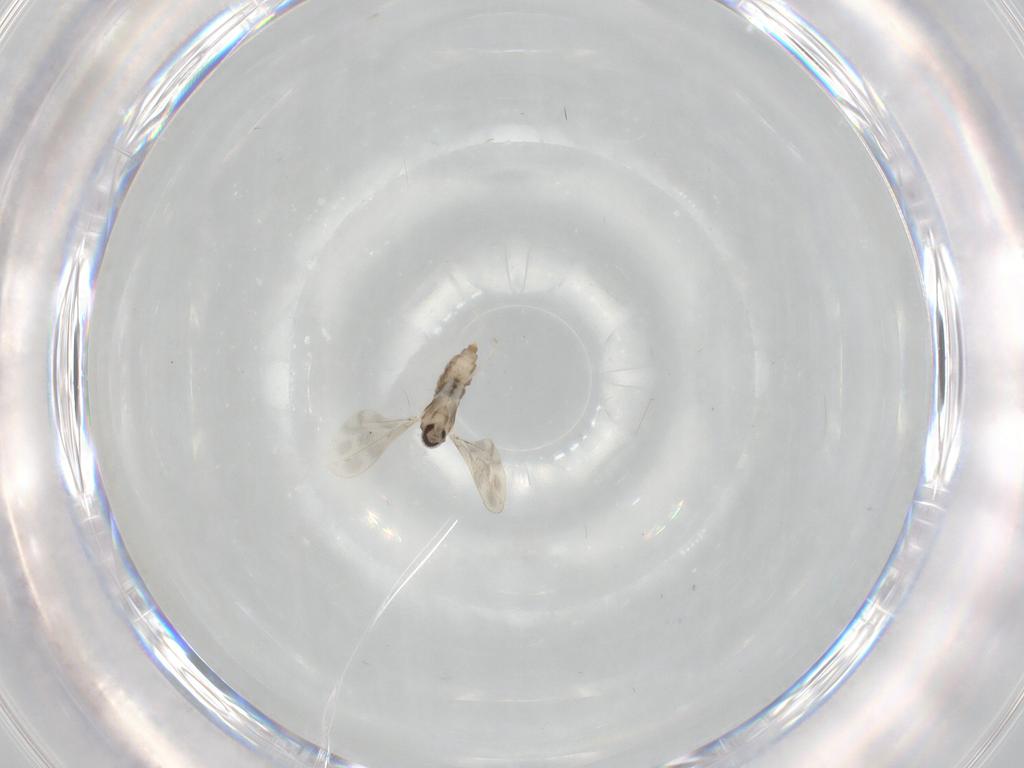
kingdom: Animalia
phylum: Arthropoda
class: Insecta
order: Diptera
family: Cecidomyiidae
